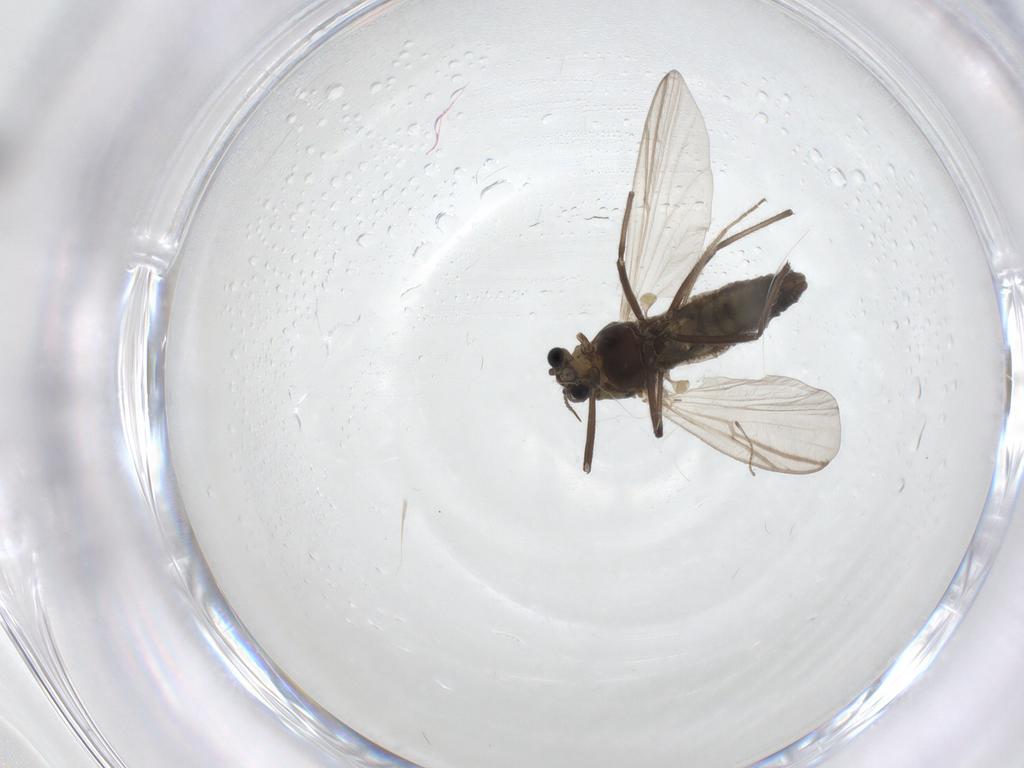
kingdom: Animalia
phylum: Arthropoda
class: Insecta
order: Diptera
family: Chironomidae
